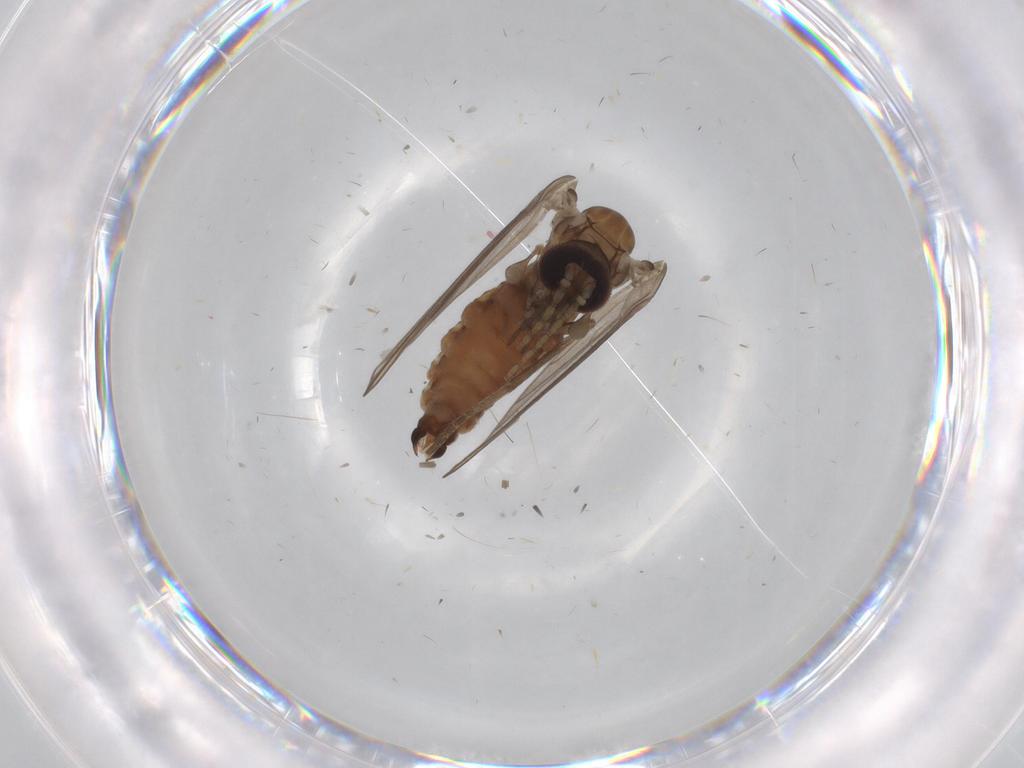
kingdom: Animalia
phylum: Arthropoda
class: Insecta
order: Diptera
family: Psychodidae
